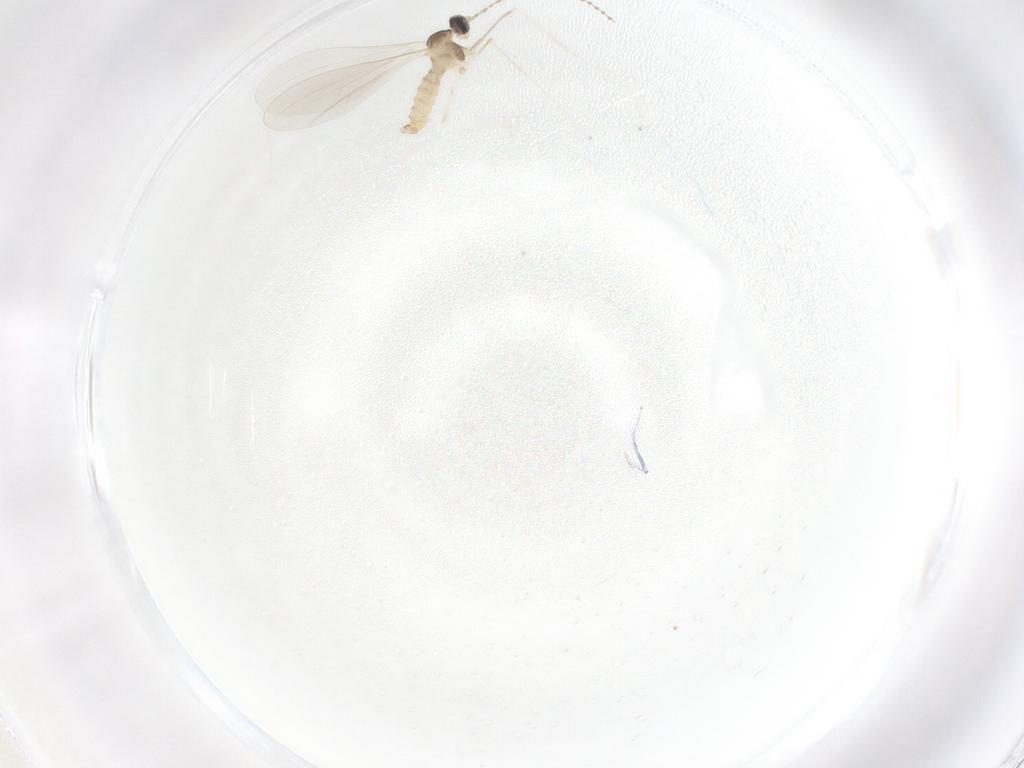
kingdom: Animalia
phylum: Arthropoda
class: Insecta
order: Diptera
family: Cecidomyiidae
